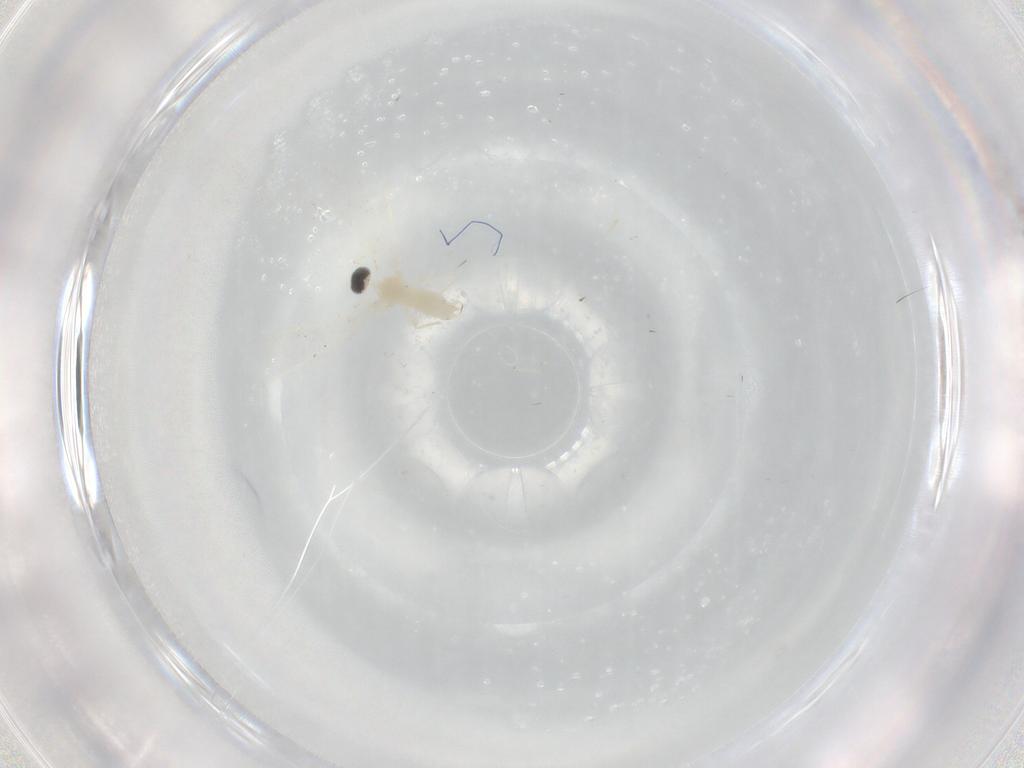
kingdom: Animalia
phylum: Arthropoda
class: Insecta
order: Diptera
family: Cecidomyiidae
